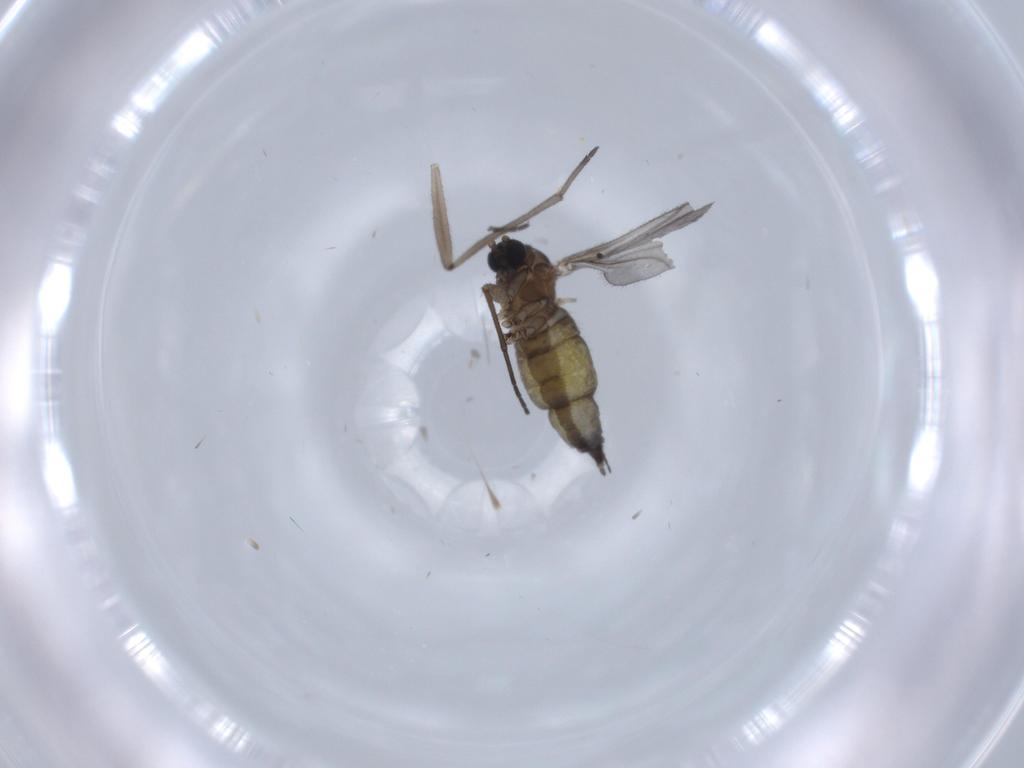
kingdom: Animalia
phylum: Arthropoda
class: Insecta
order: Diptera
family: Sciaridae
